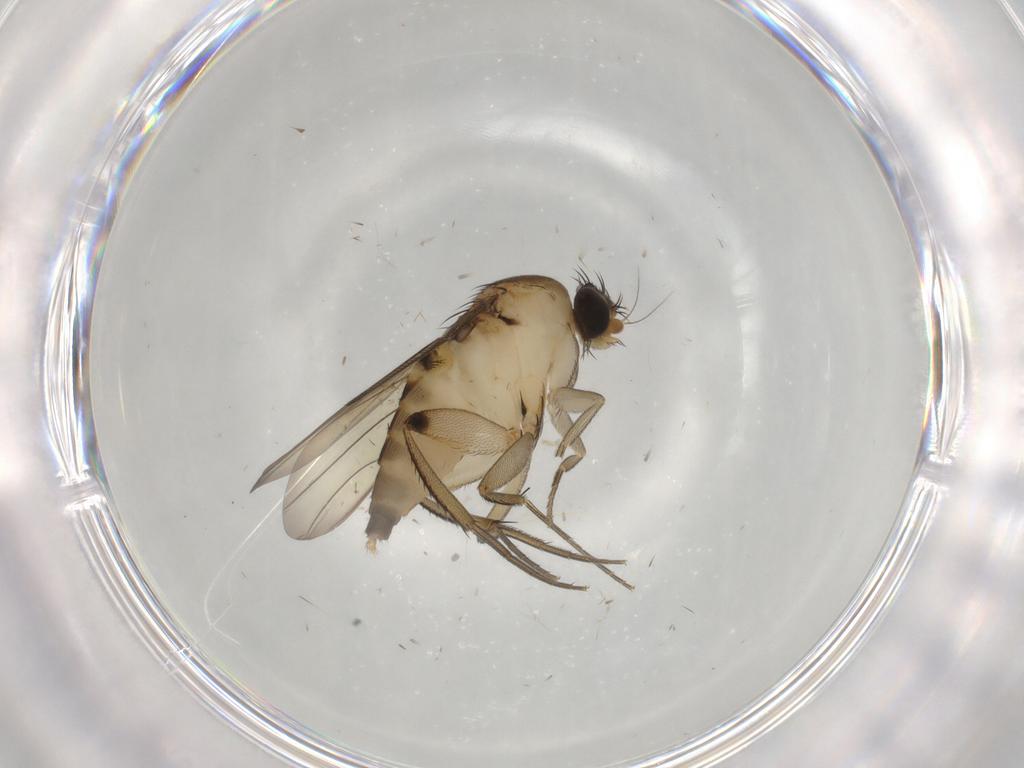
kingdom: Animalia
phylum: Arthropoda
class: Insecta
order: Diptera
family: Phoridae
